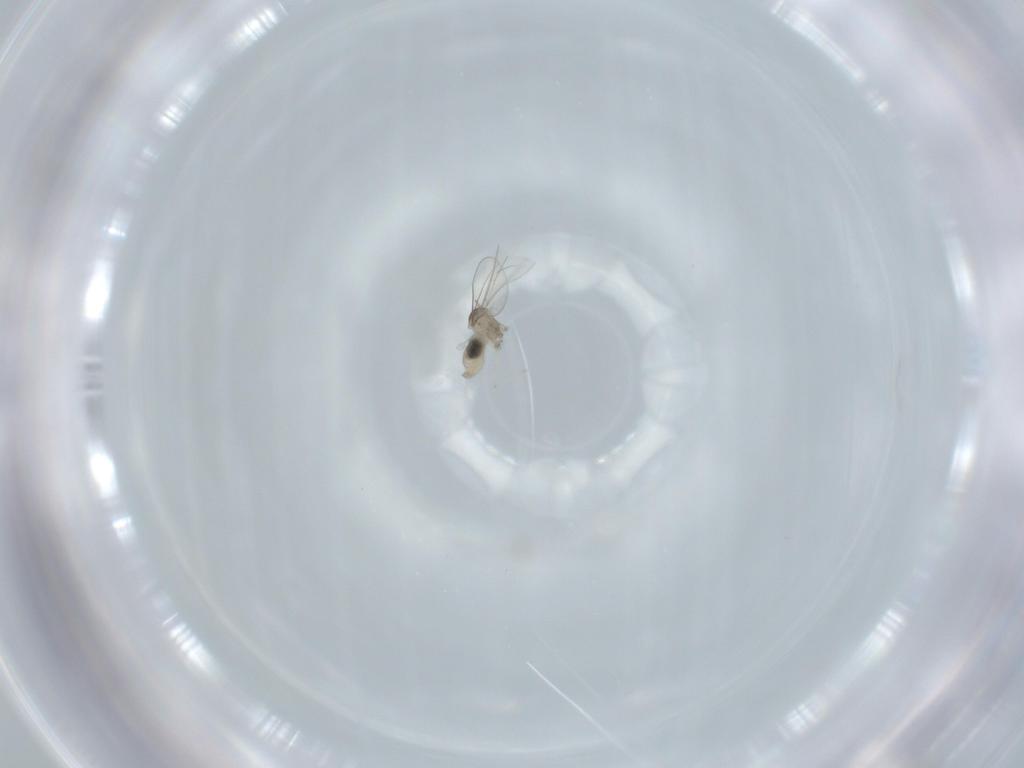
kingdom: Animalia
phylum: Arthropoda
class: Insecta
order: Diptera
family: Cecidomyiidae
